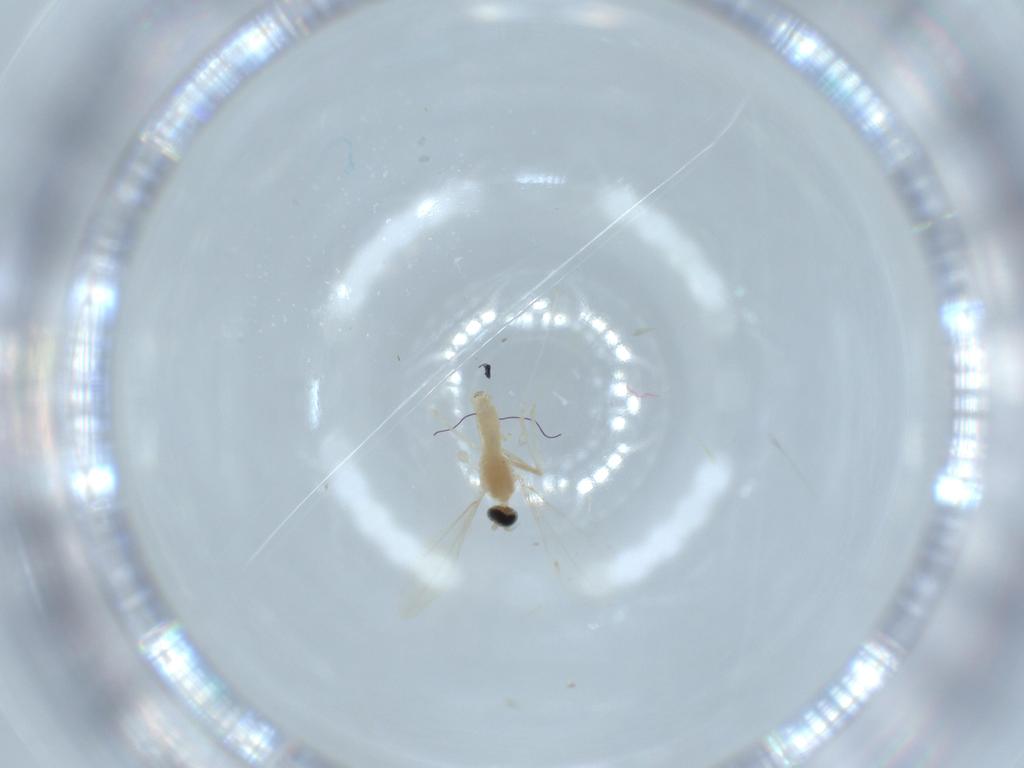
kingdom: Animalia
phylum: Arthropoda
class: Insecta
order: Diptera
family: Cecidomyiidae
